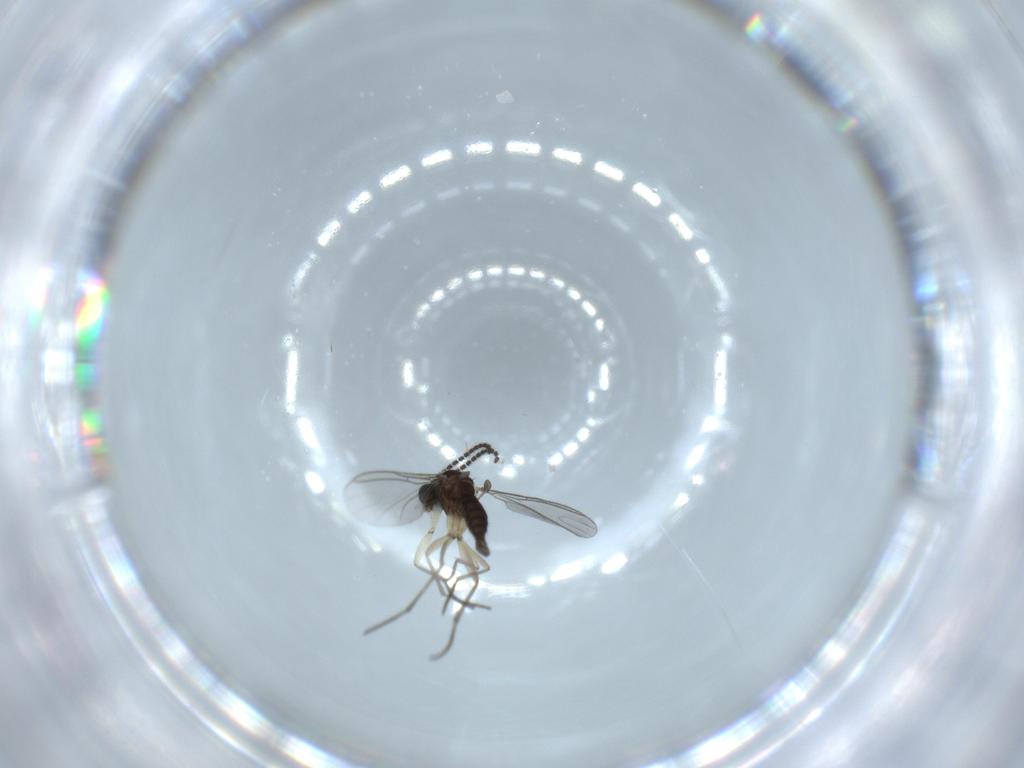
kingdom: Animalia
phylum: Arthropoda
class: Insecta
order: Diptera
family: Sciaridae
